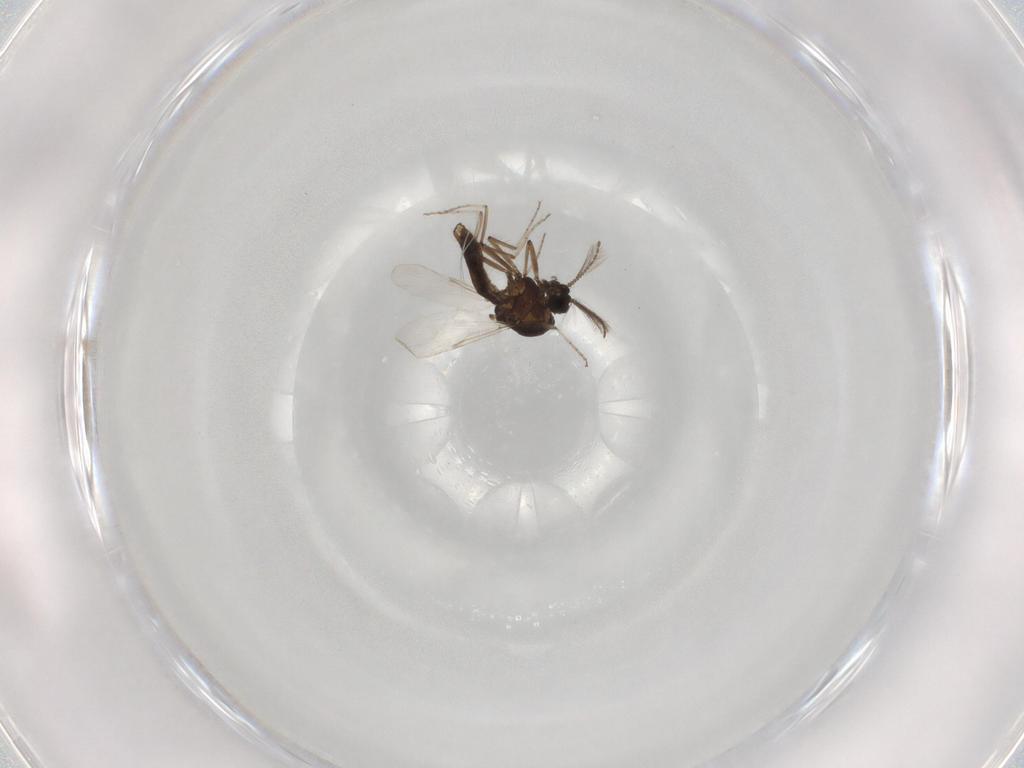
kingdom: Animalia
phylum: Arthropoda
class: Insecta
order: Diptera
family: Chironomidae
